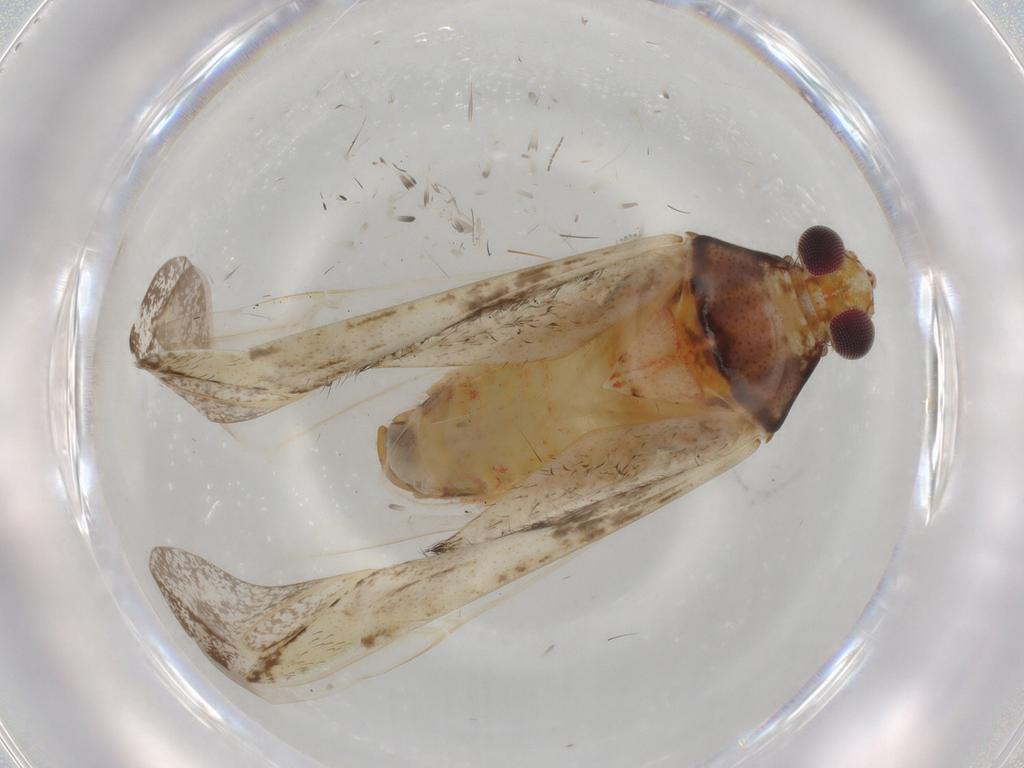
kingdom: Animalia
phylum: Arthropoda
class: Insecta
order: Hemiptera
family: Miridae
